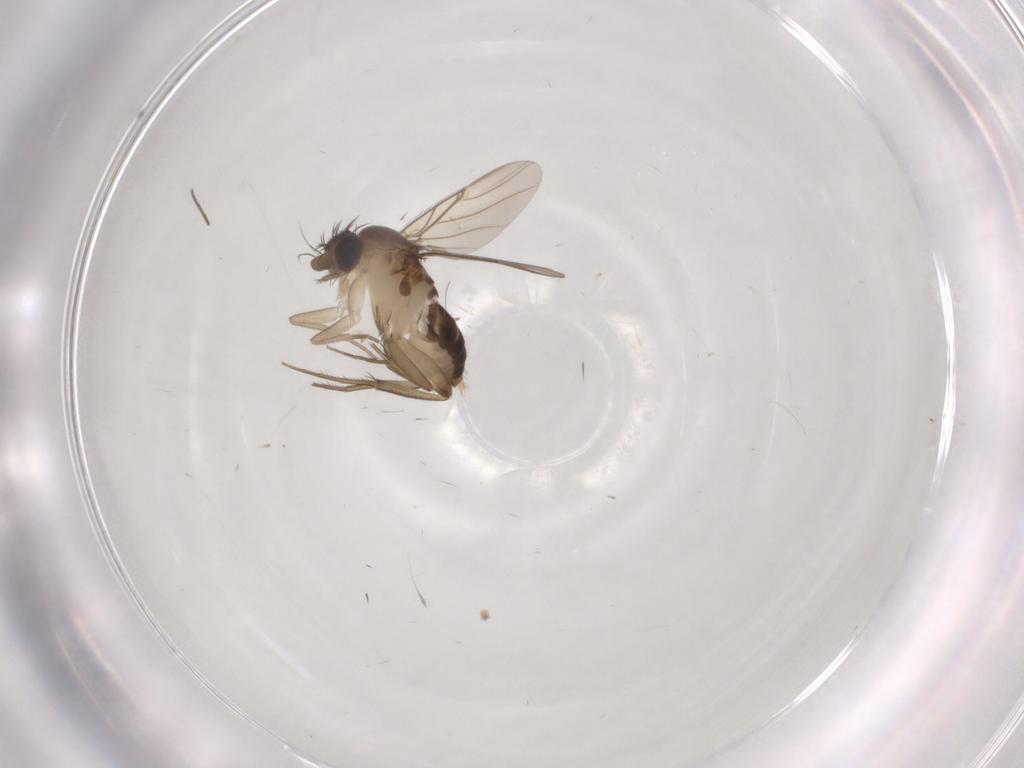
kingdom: Animalia
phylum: Arthropoda
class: Insecta
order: Diptera
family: Phoridae
